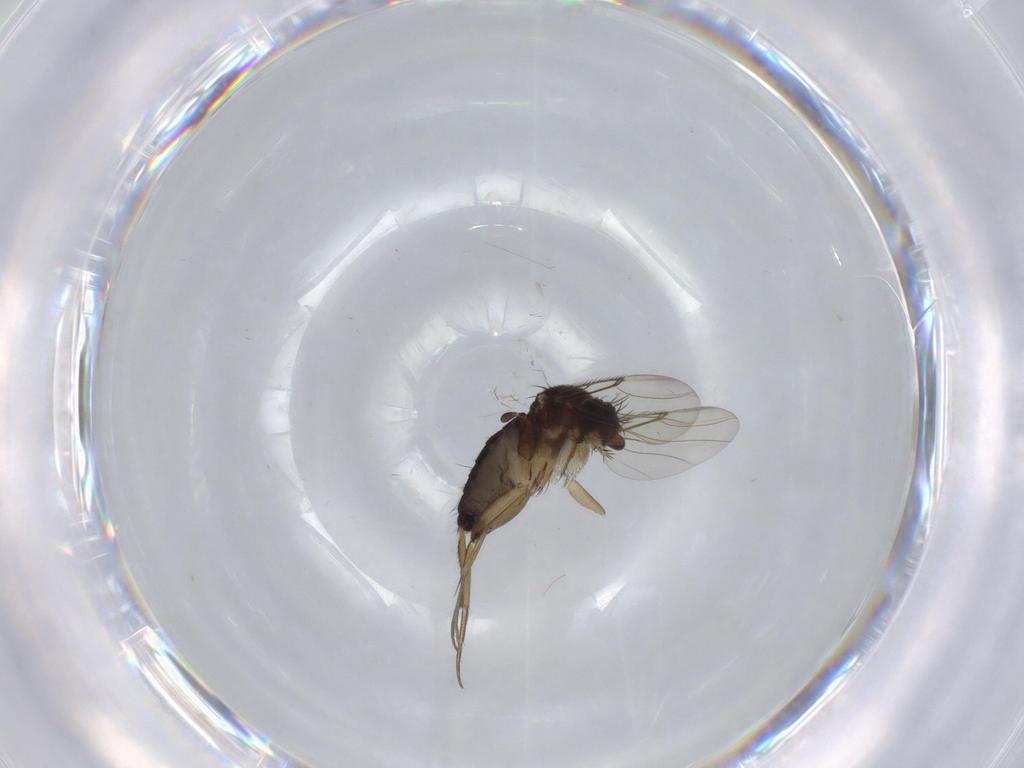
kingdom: Animalia
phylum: Arthropoda
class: Insecta
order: Diptera
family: Phoridae
